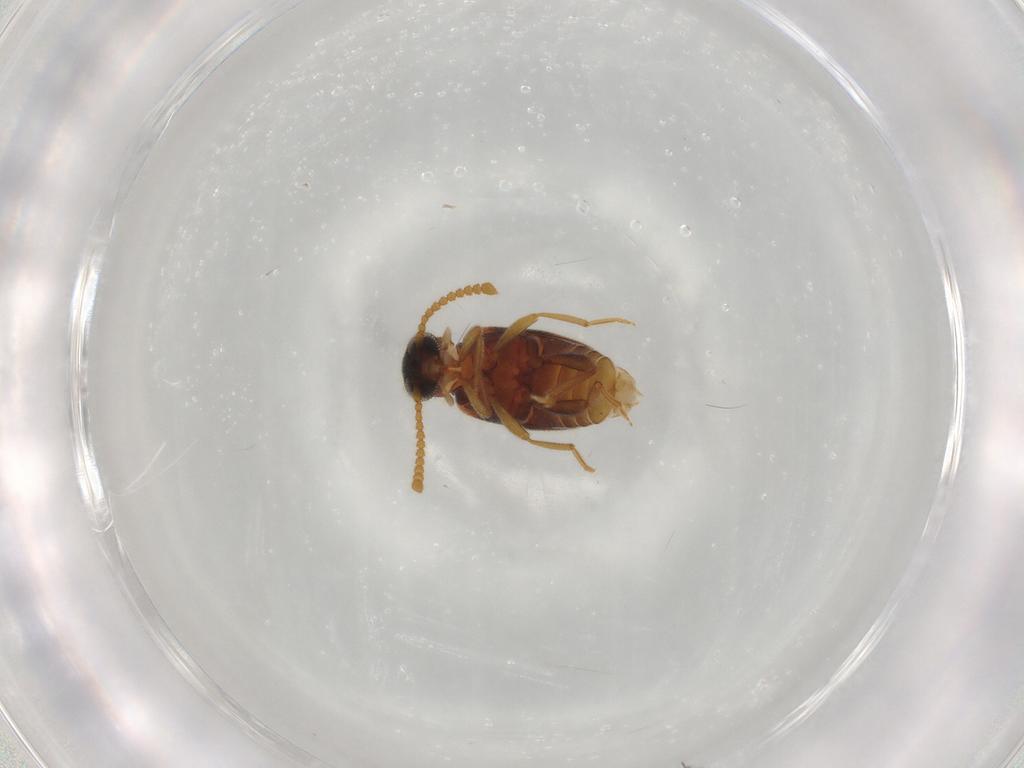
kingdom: Animalia
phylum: Arthropoda
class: Insecta
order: Coleoptera
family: Aderidae
